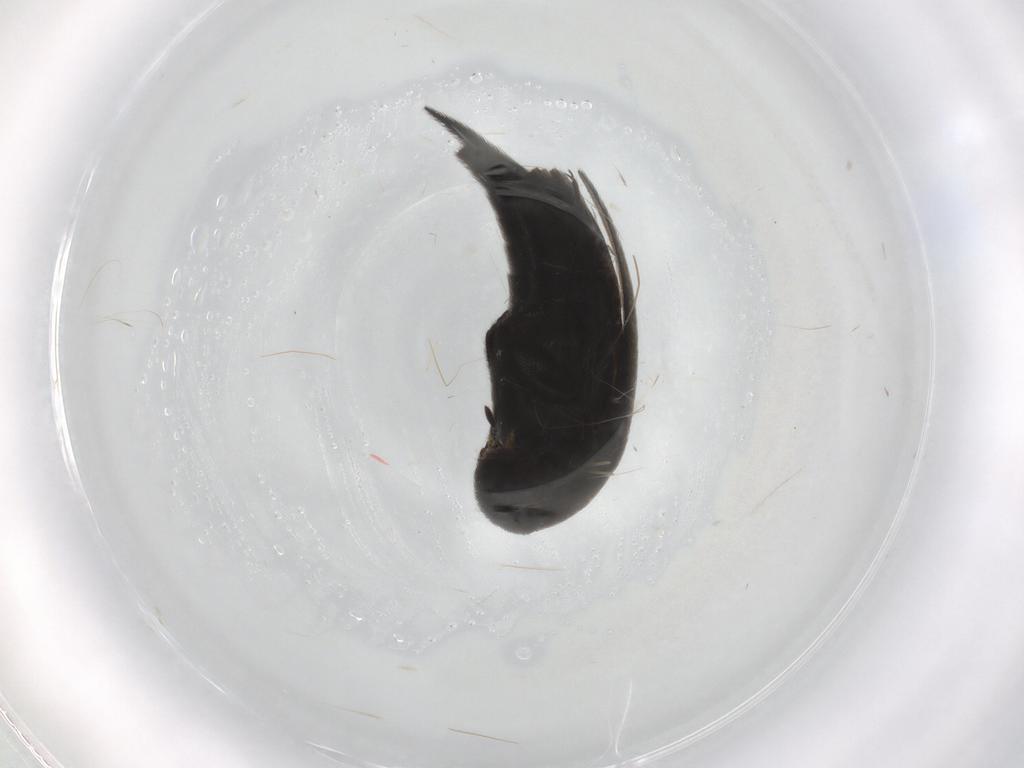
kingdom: Animalia
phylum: Arthropoda
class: Insecta
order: Coleoptera
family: Staphylinidae
